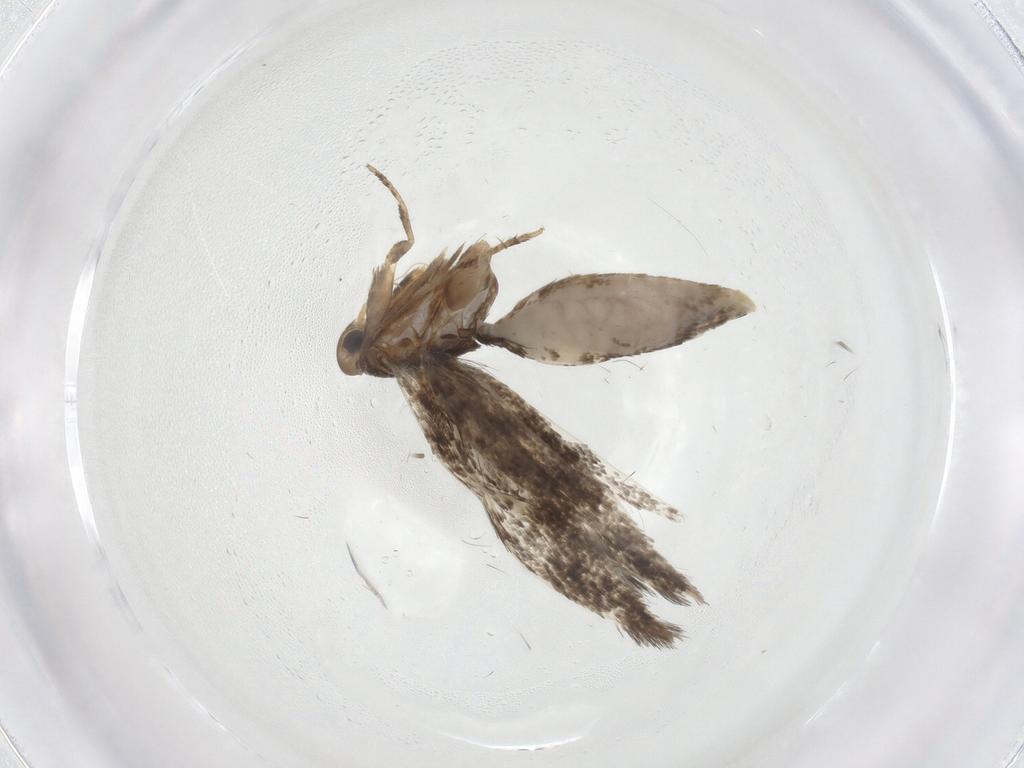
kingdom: Animalia
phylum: Arthropoda
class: Insecta
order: Lepidoptera
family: Elachistidae
